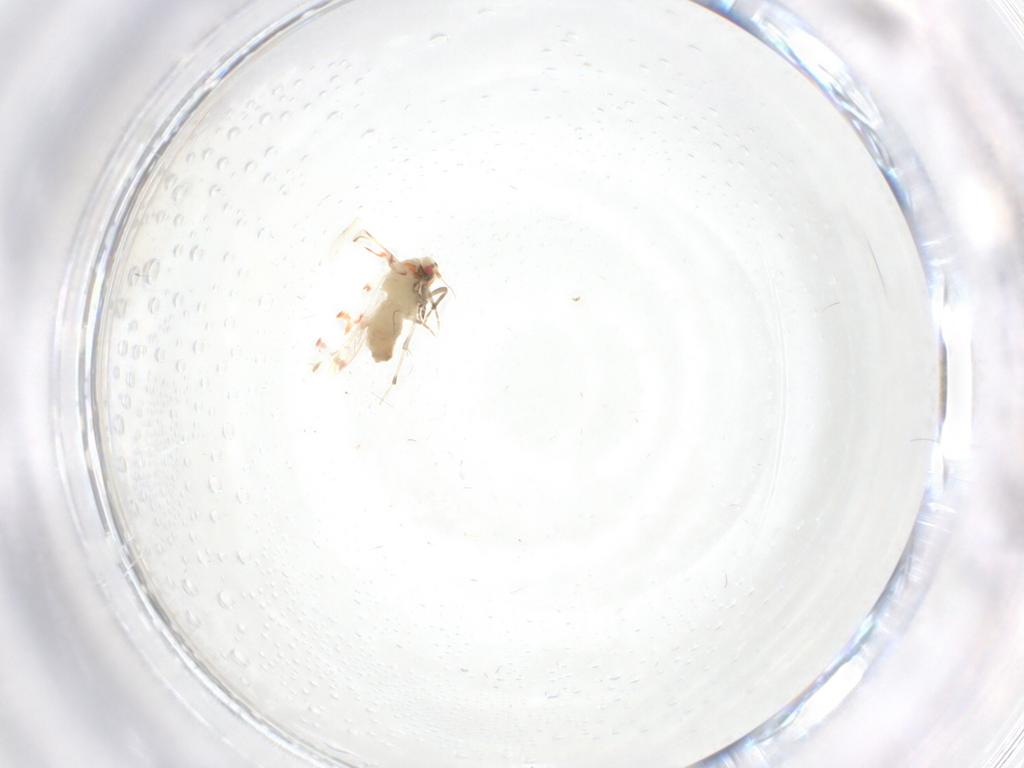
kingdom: Animalia
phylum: Arthropoda
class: Insecta
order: Hemiptera
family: Aleyrodidae
